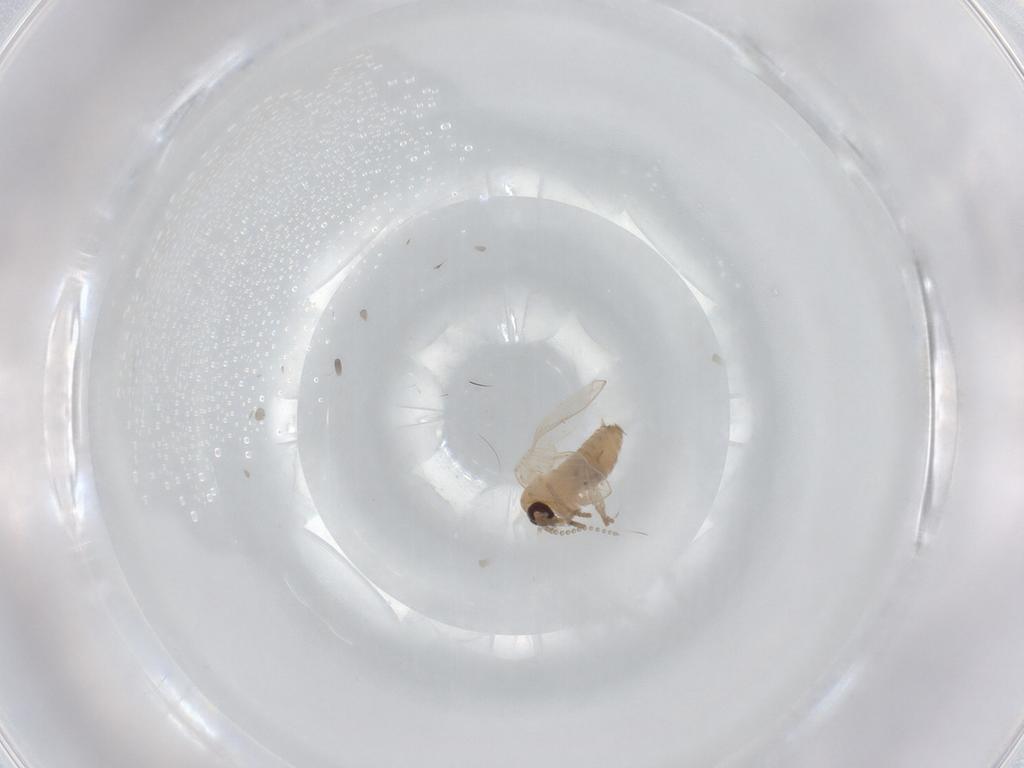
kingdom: Animalia
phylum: Arthropoda
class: Insecta
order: Diptera
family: Psychodidae
